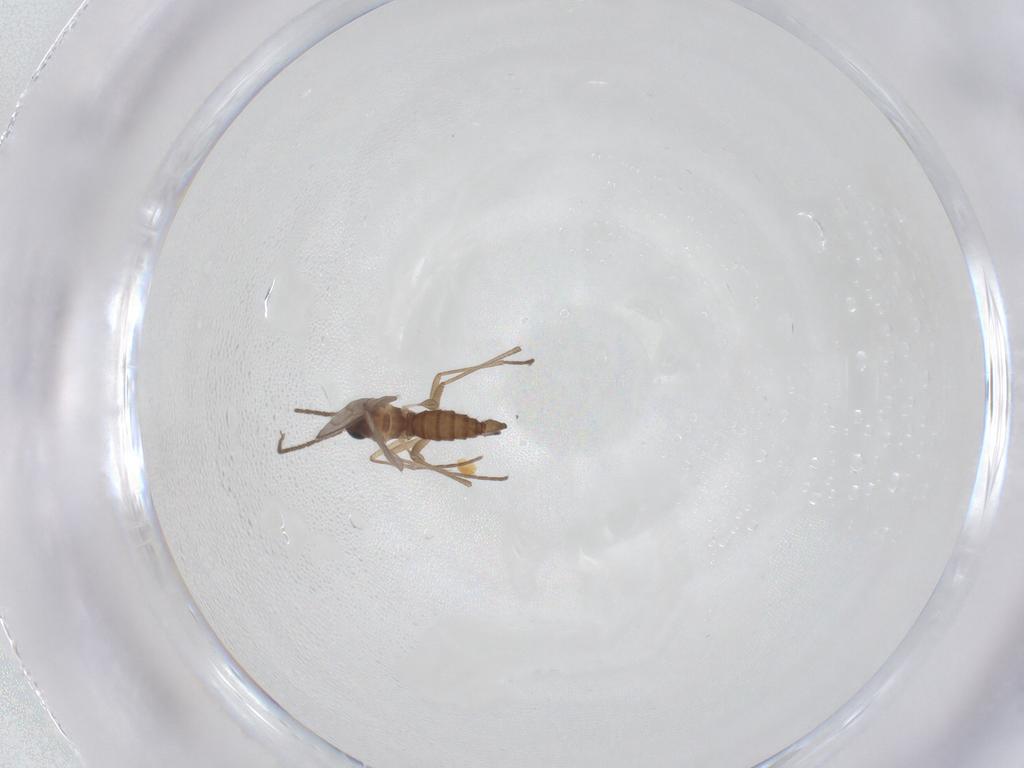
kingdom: Animalia
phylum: Arthropoda
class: Insecta
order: Diptera
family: Sciaridae
